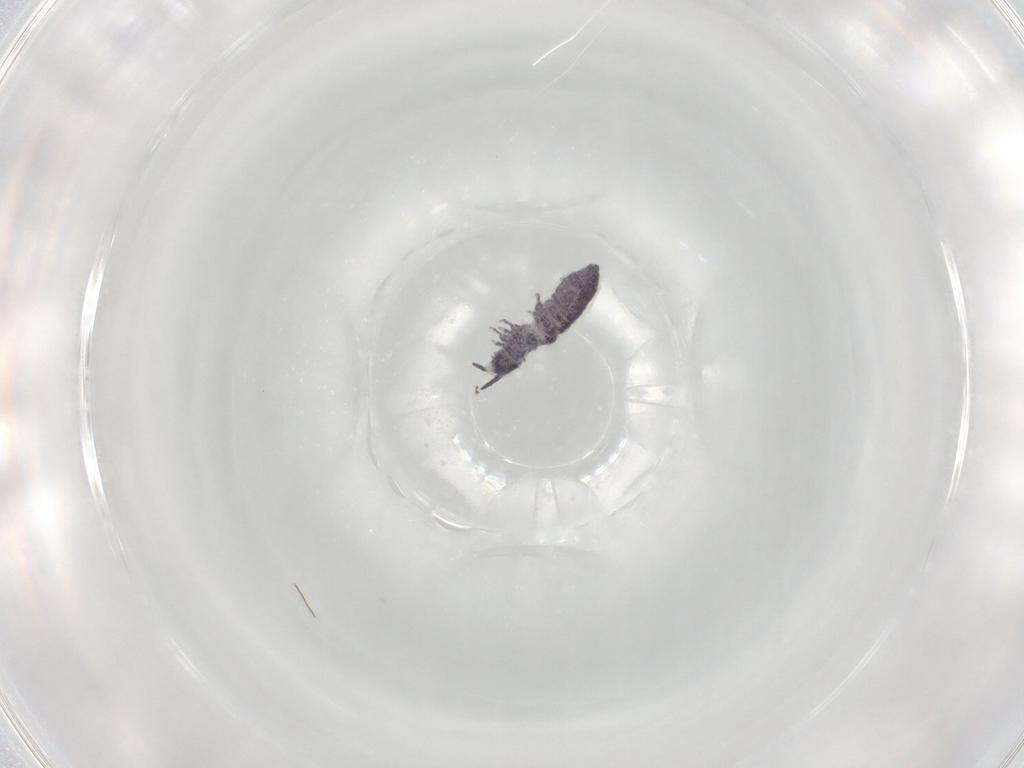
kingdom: Animalia
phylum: Arthropoda
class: Collembola
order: Poduromorpha
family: Brachystomellidae
